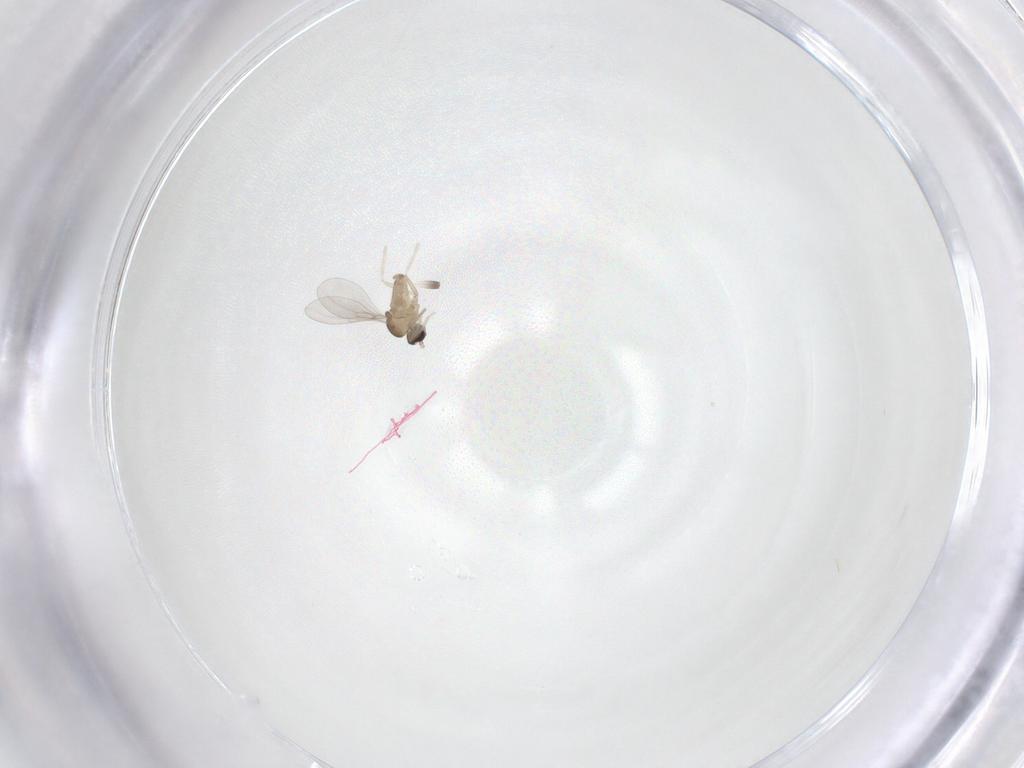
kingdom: Animalia
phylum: Arthropoda
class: Insecta
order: Diptera
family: Cecidomyiidae
